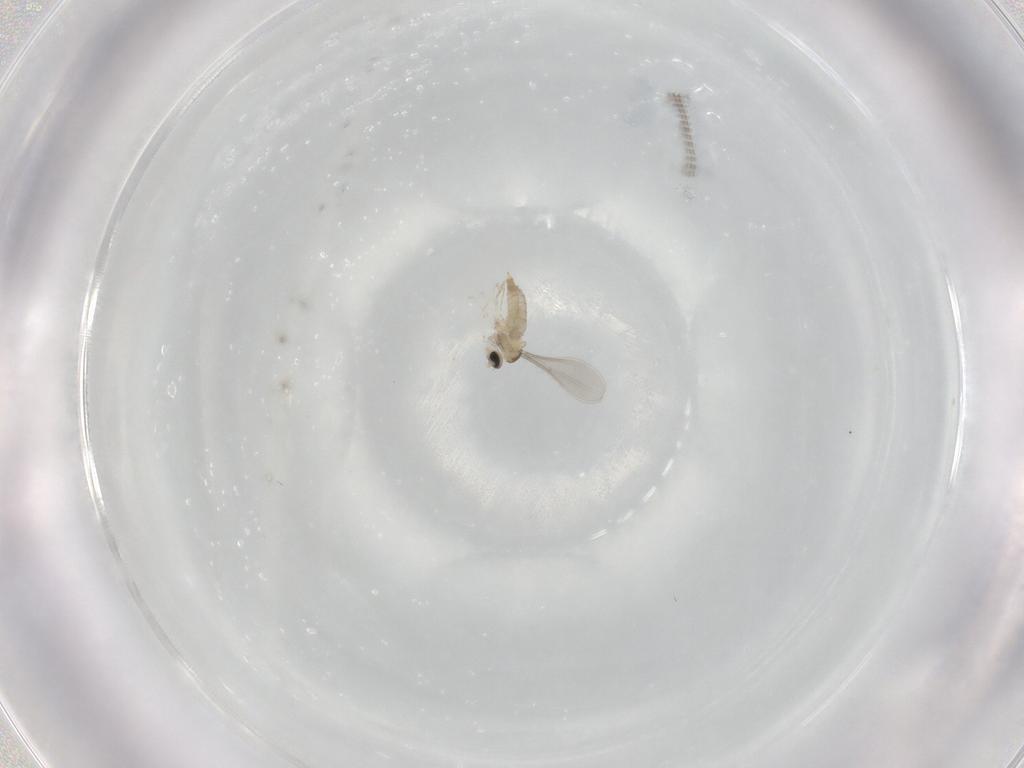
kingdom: Animalia
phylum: Arthropoda
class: Insecta
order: Diptera
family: Cecidomyiidae
